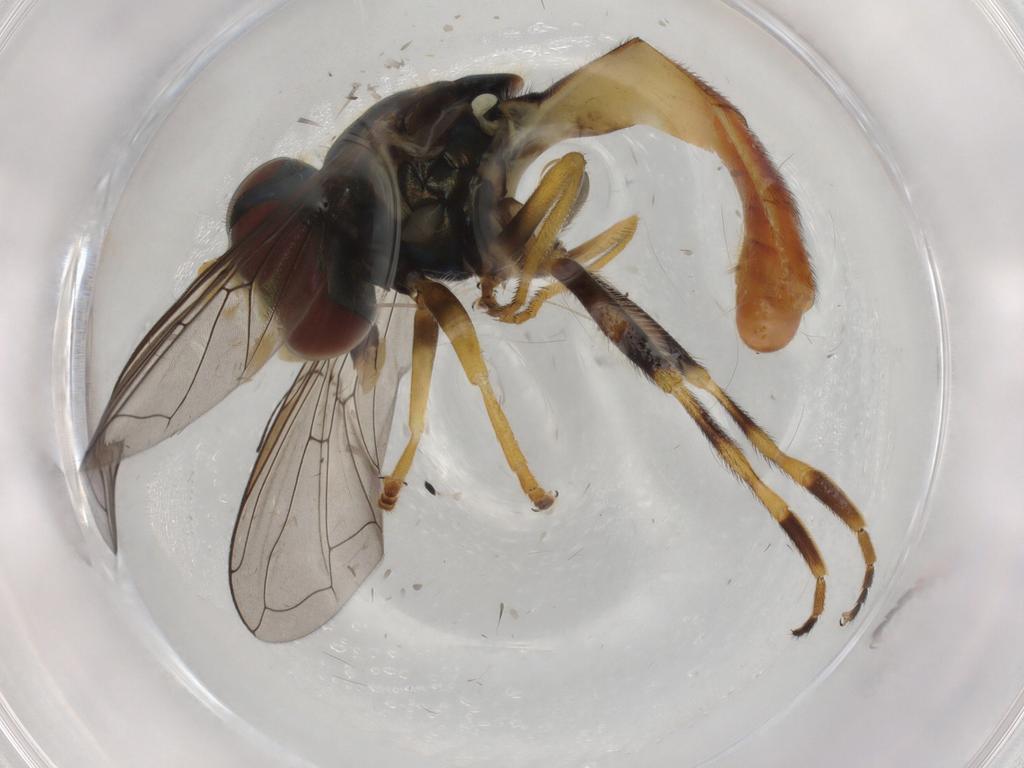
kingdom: Animalia
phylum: Arthropoda
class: Insecta
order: Diptera
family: Syrphidae
